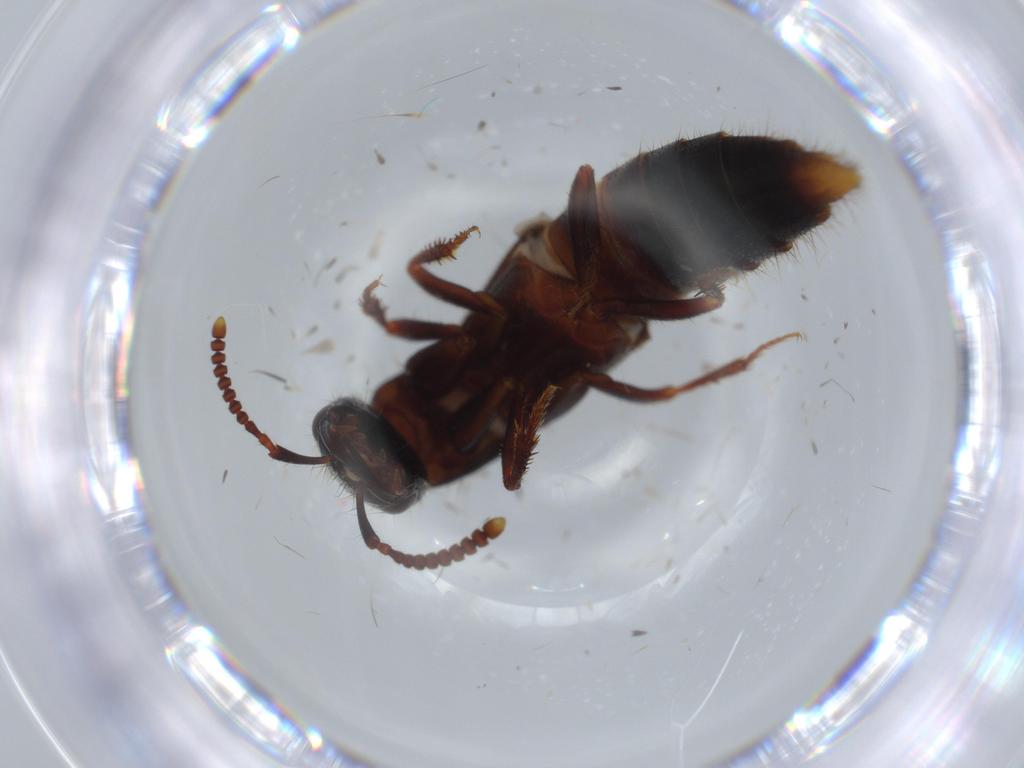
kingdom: Animalia
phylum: Arthropoda
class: Insecta
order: Coleoptera
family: Staphylinidae
